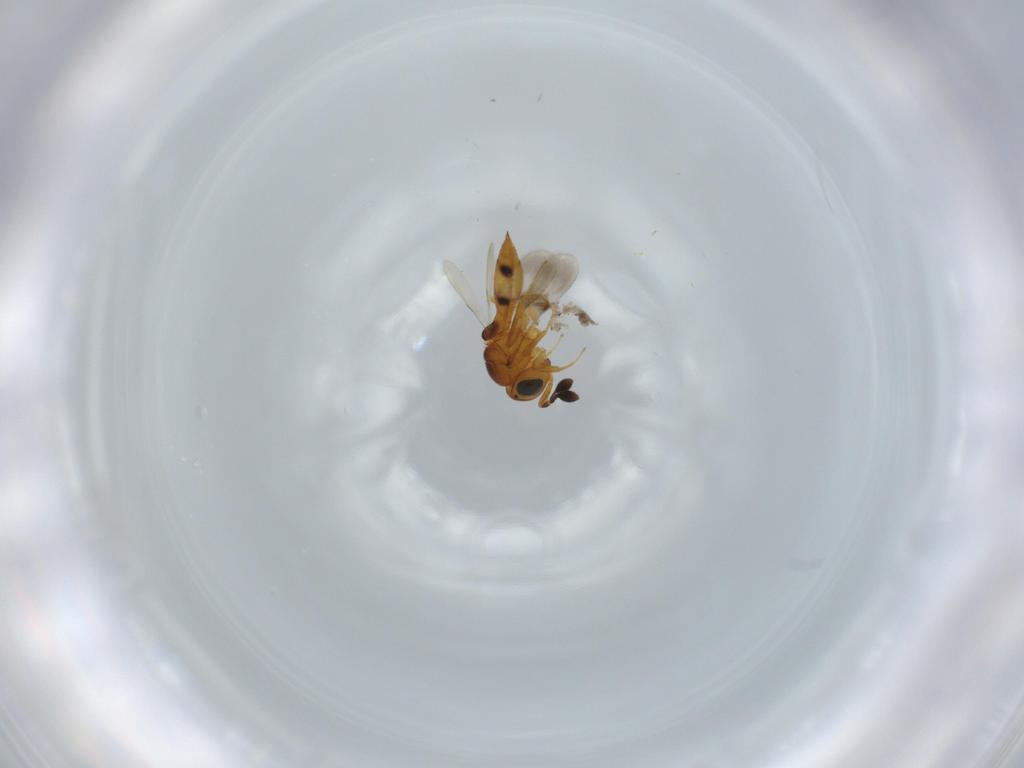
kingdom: Animalia
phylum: Arthropoda
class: Insecta
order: Hymenoptera
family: Scelionidae
